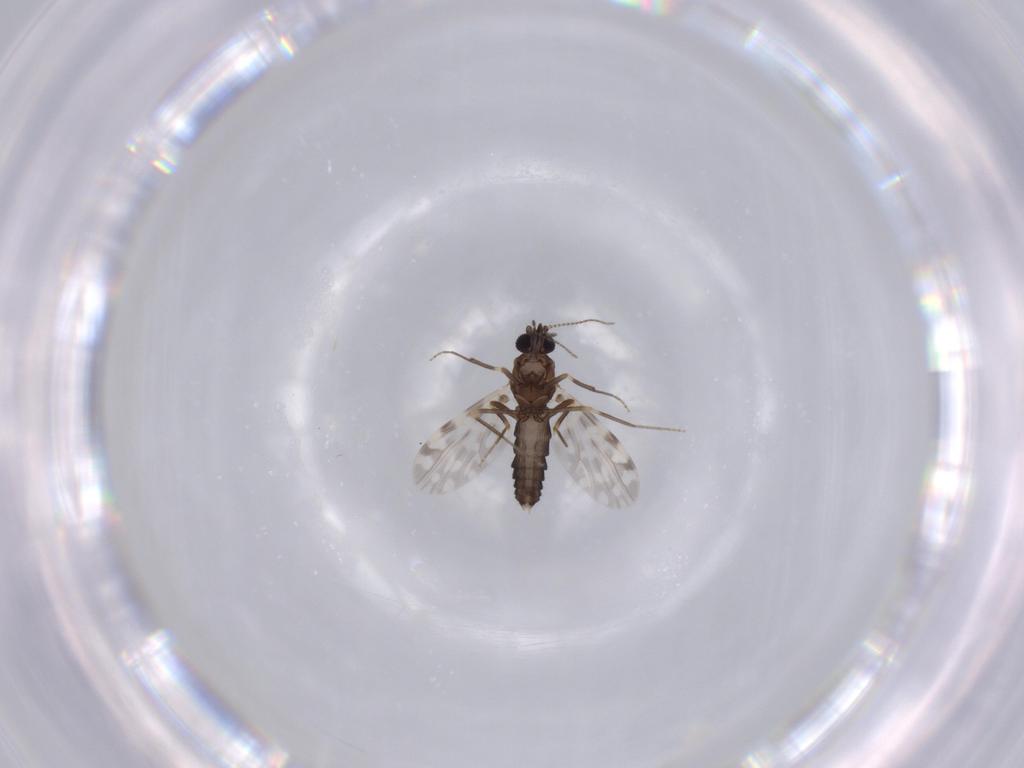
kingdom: Animalia
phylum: Arthropoda
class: Insecta
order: Diptera
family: Ceratopogonidae
